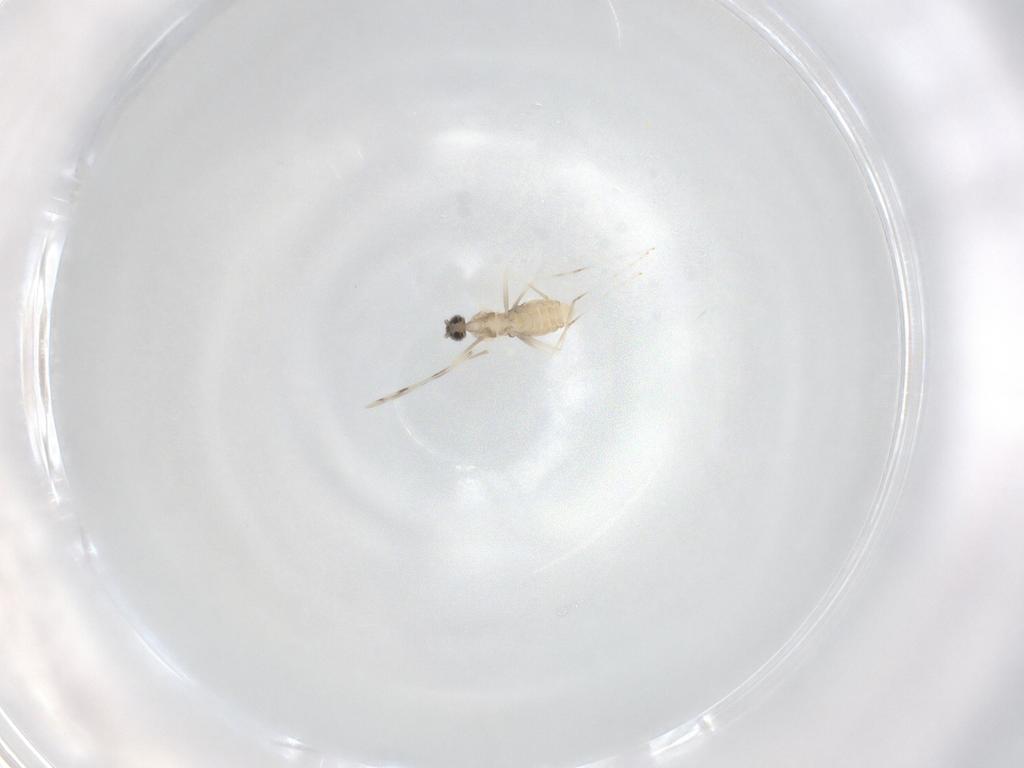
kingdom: Animalia
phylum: Arthropoda
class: Insecta
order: Diptera
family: Cecidomyiidae
